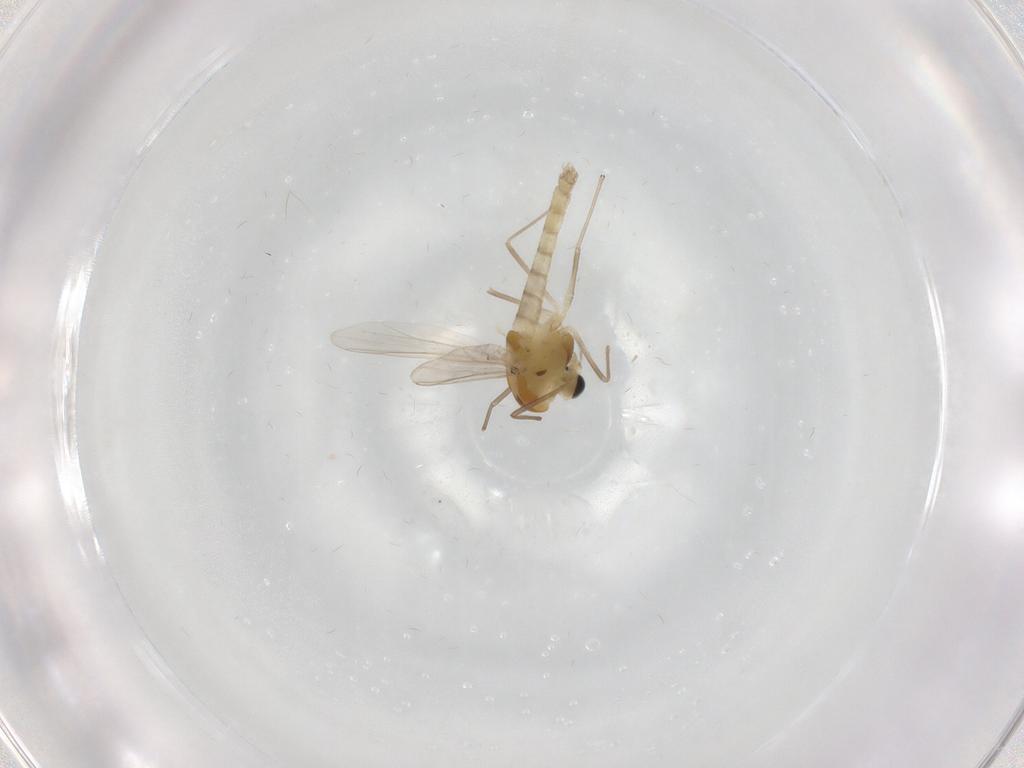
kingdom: Animalia
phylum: Arthropoda
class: Insecta
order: Diptera
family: Chironomidae
